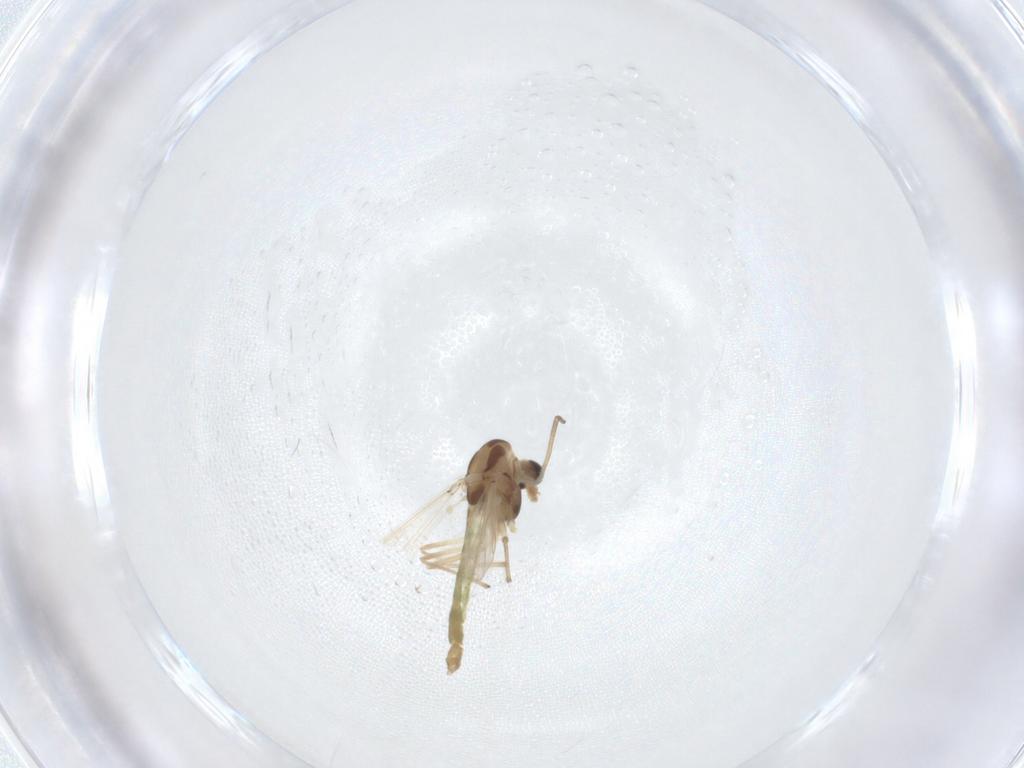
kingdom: Animalia
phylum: Arthropoda
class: Insecta
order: Diptera
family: Chironomidae
